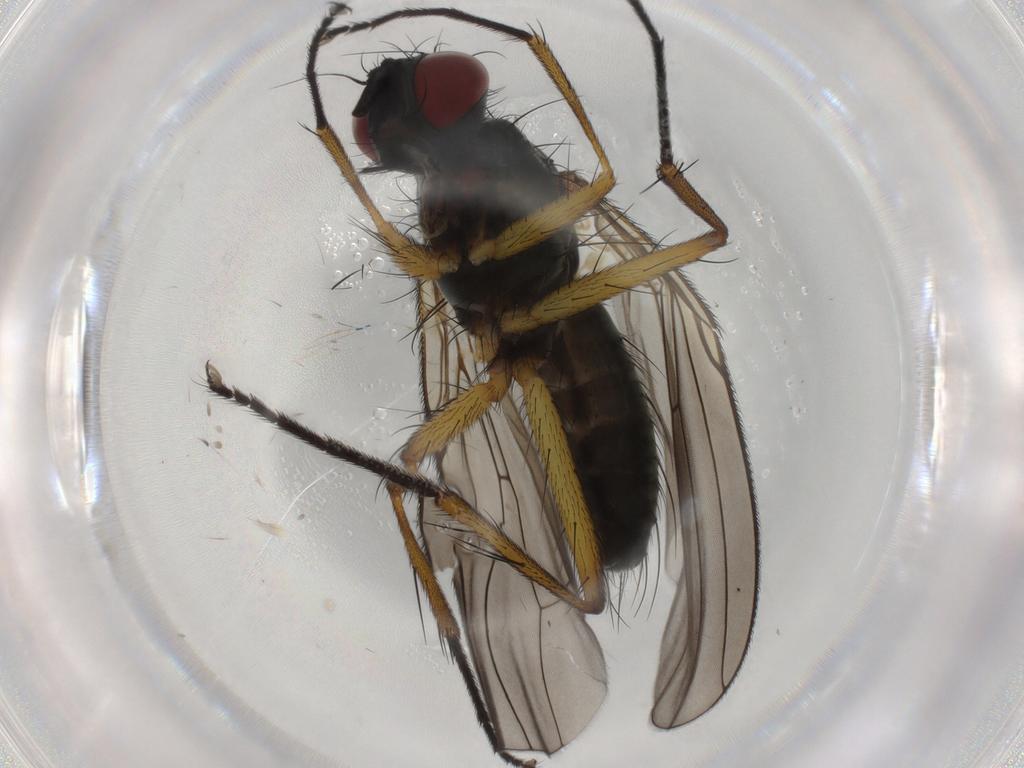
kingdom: Animalia
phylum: Arthropoda
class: Insecta
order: Diptera
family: Muscidae
